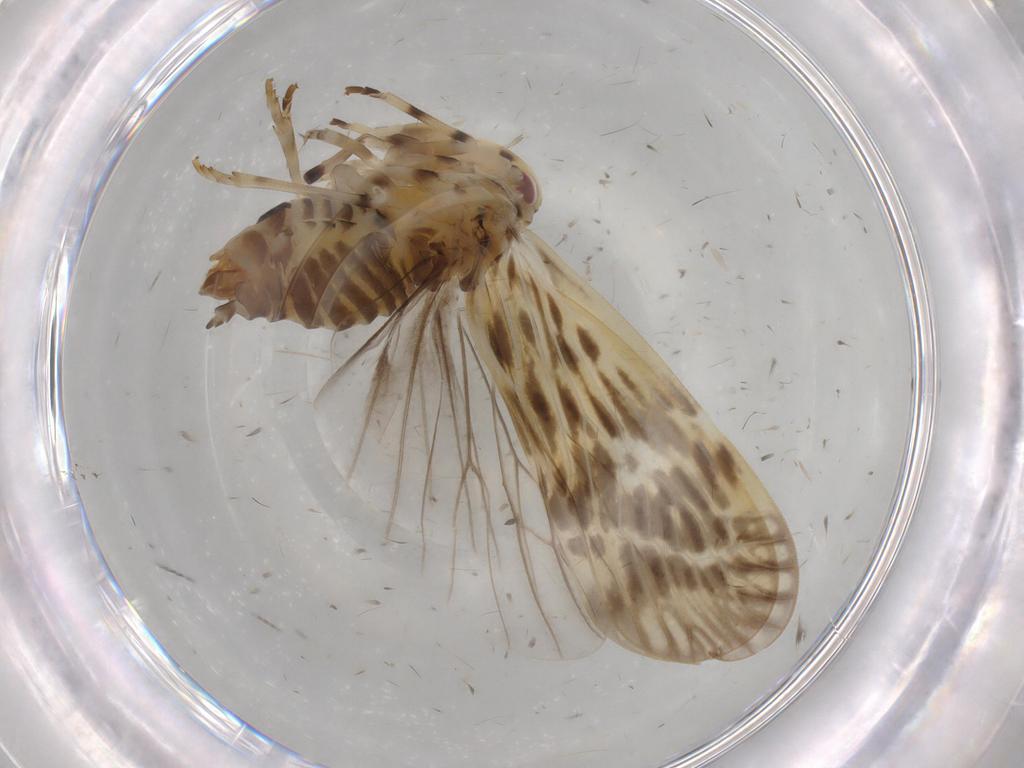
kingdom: Animalia
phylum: Arthropoda
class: Insecta
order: Hemiptera
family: Derbidae
